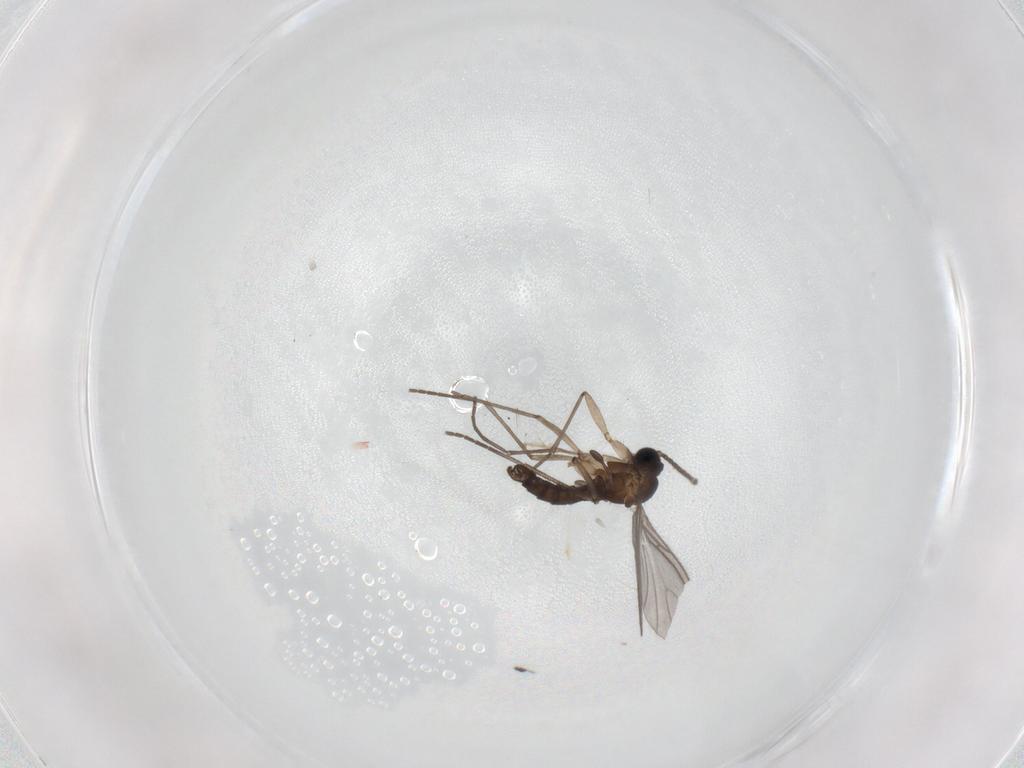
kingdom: Animalia
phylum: Arthropoda
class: Insecta
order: Diptera
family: Sciaridae
